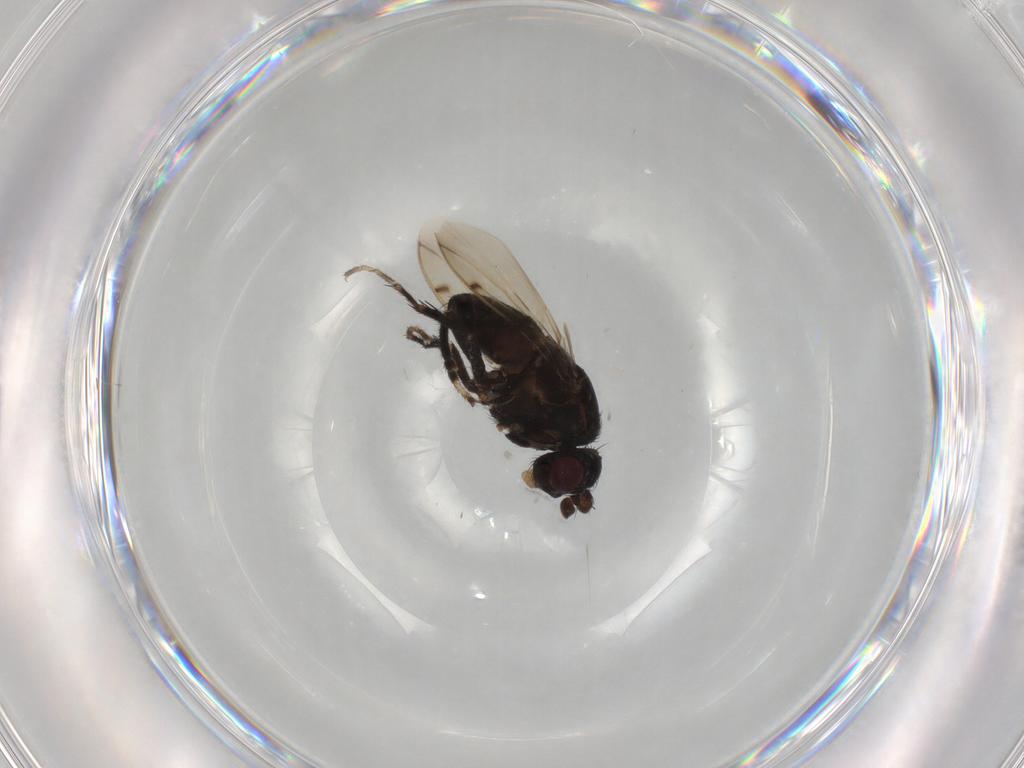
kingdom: Animalia
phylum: Arthropoda
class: Insecta
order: Diptera
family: Sphaeroceridae
